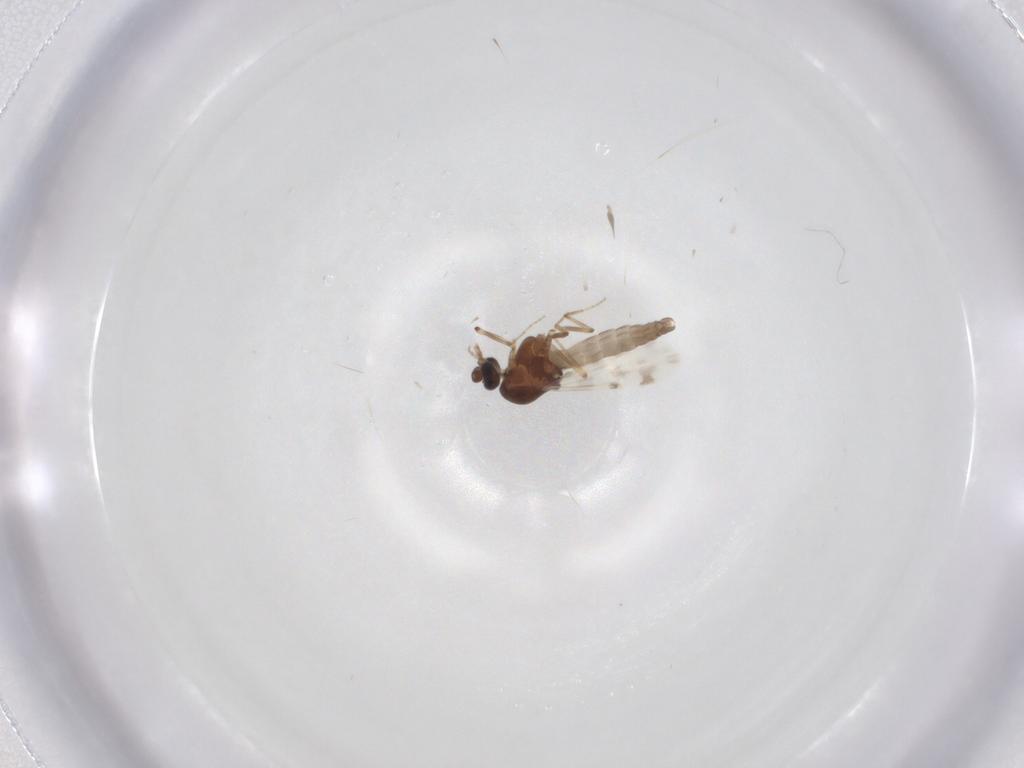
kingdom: Animalia
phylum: Arthropoda
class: Insecta
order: Diptera
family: Ceratopogonidae
